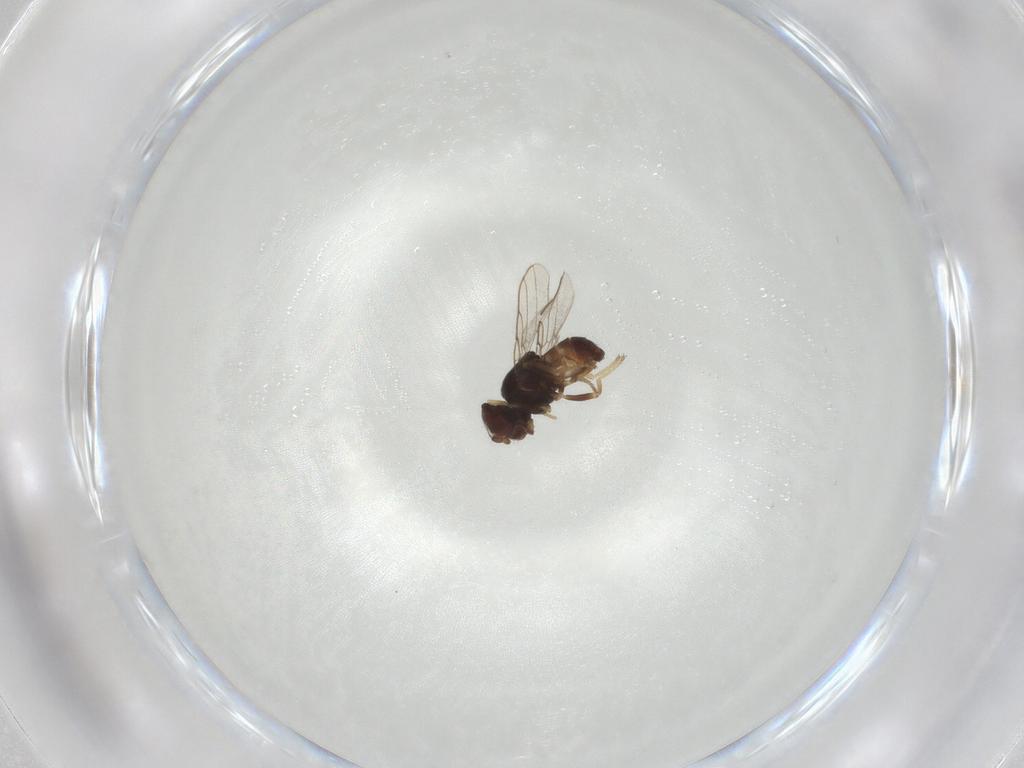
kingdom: Animalia
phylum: Arthropoda
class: Insecta
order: Diptera
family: Chloropidae
